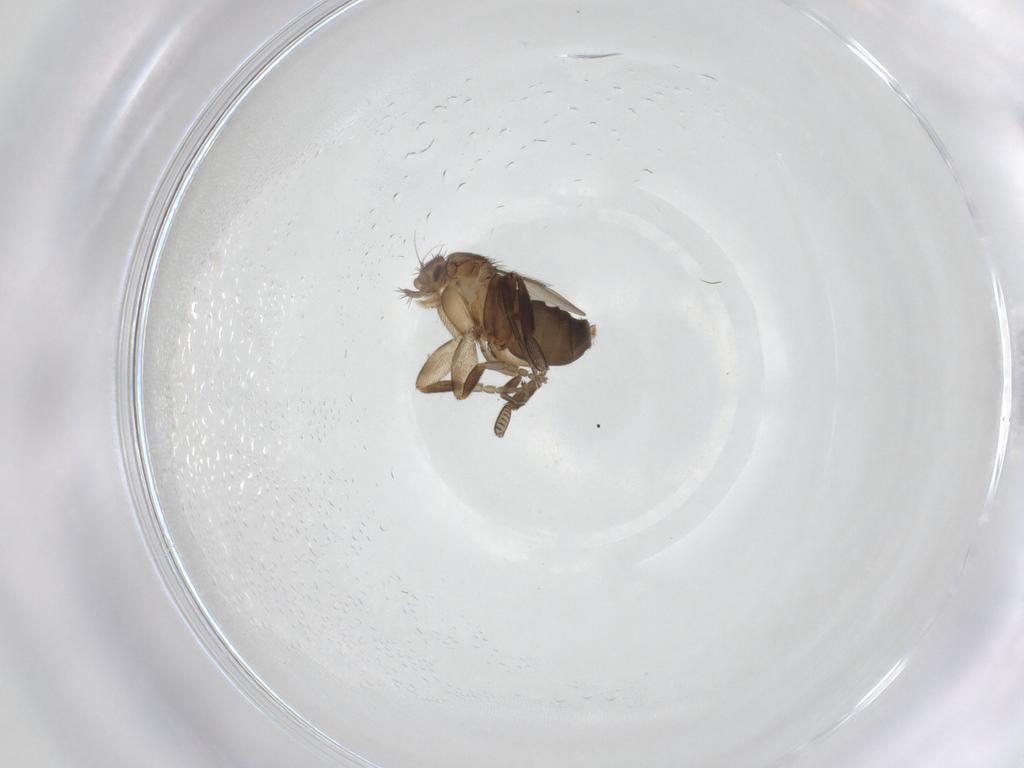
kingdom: Animalia
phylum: Arthropoda
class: Insecta
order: Diptera
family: Phoridae
